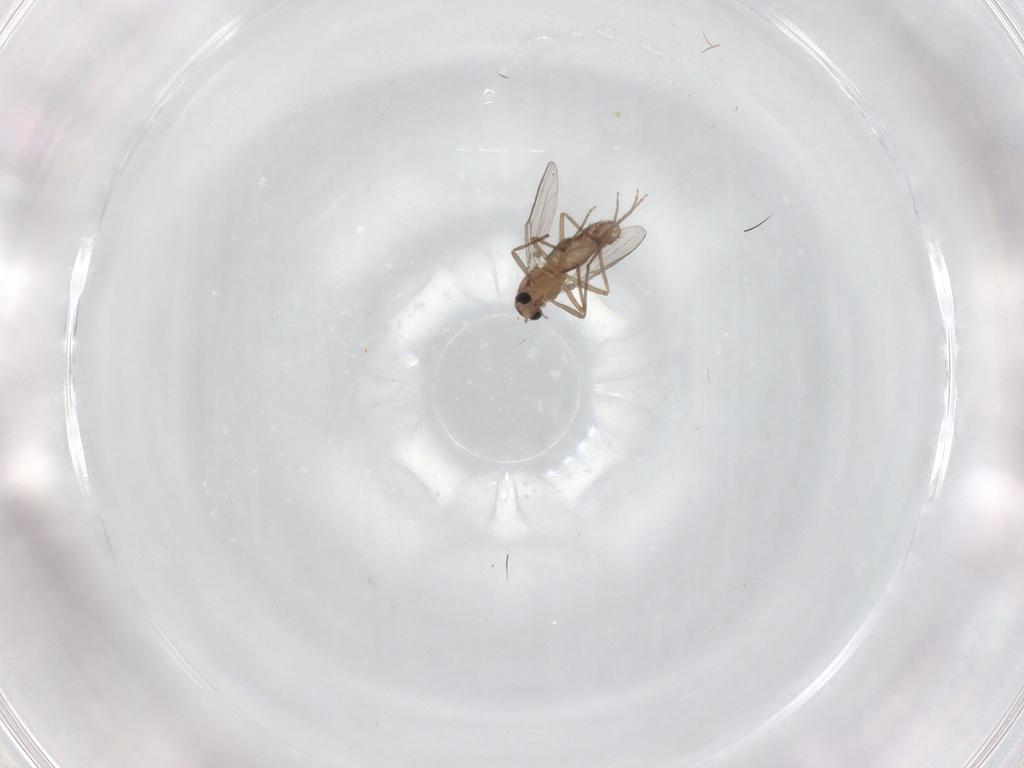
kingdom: Animalia
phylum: Arthropoda
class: Insecta
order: Diptera
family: Chironomidae
